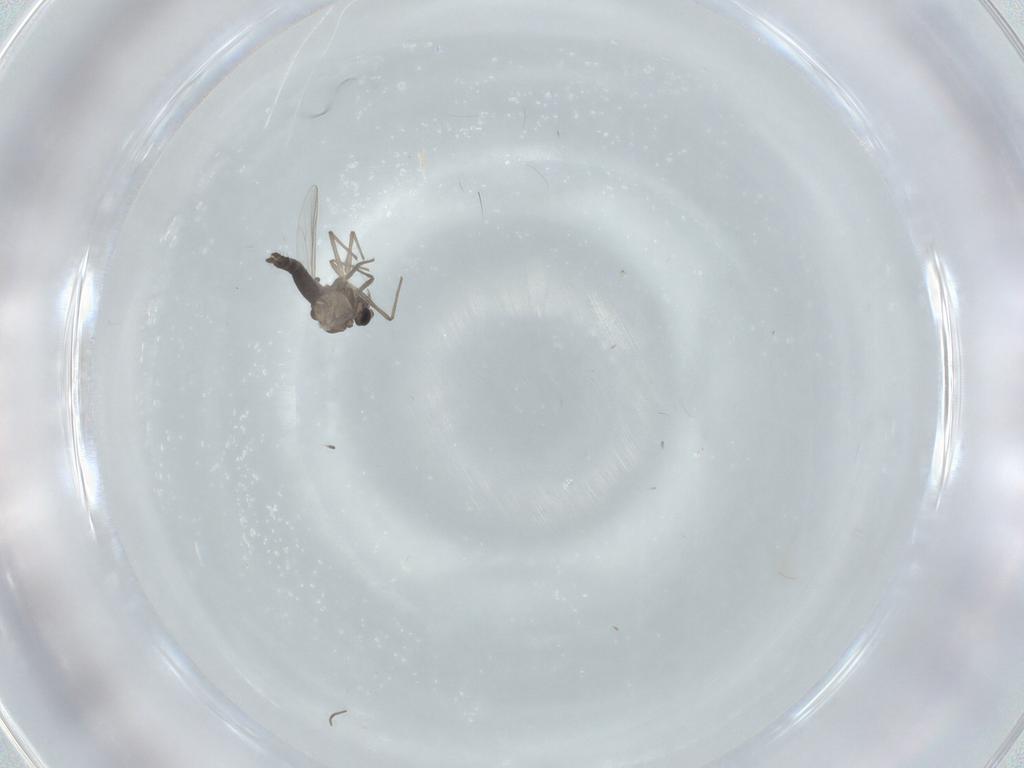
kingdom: Animalia
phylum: Arthropoda
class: Insecta
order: Diptera
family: Chironomidae
